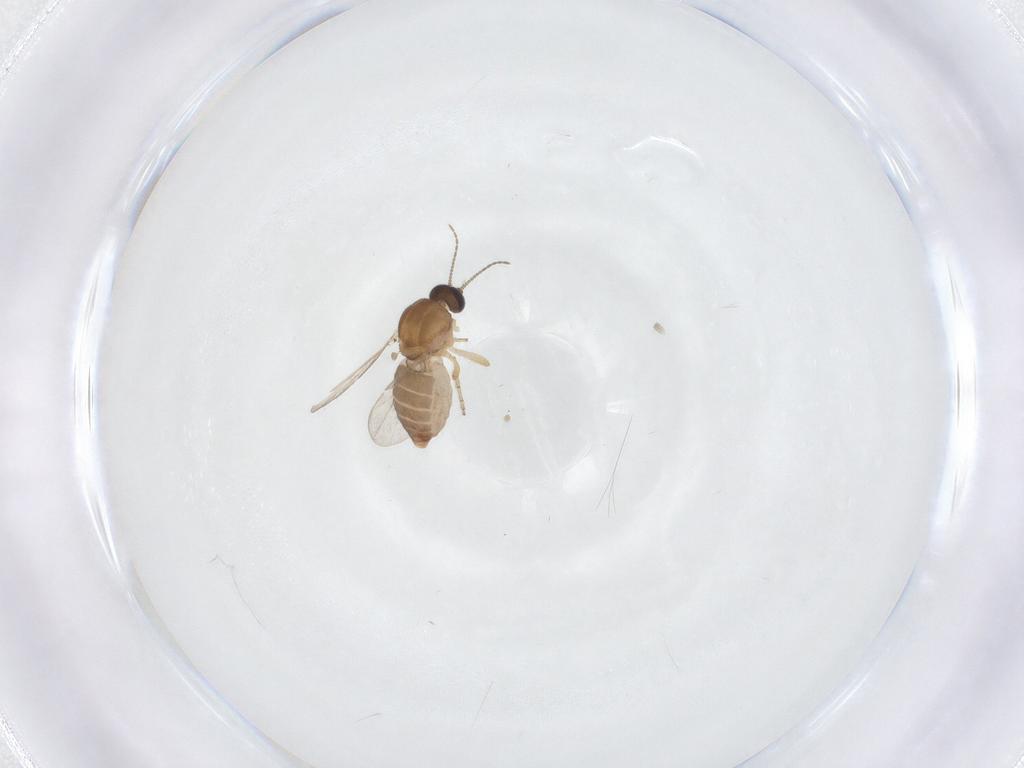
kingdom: Animalia
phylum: Arthropoda
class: Insecta
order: Diptera
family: Ceratopogonidae
